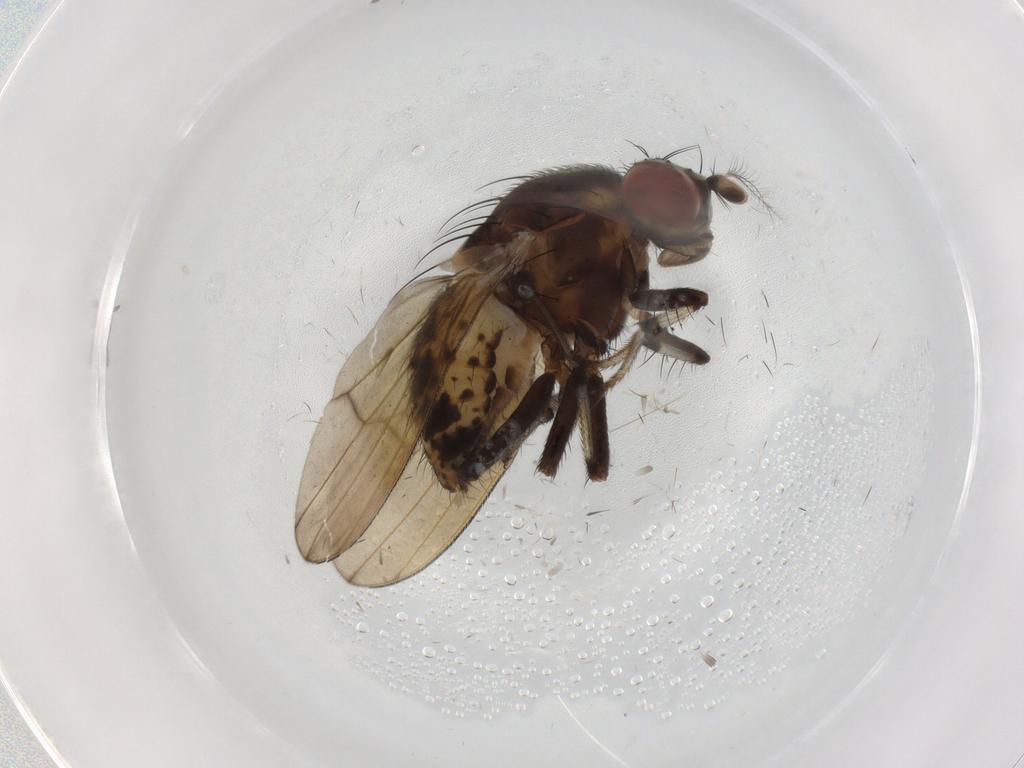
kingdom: Animalia
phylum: Arthropoda
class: Insecta
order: Diptera
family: Lauxaniidae
